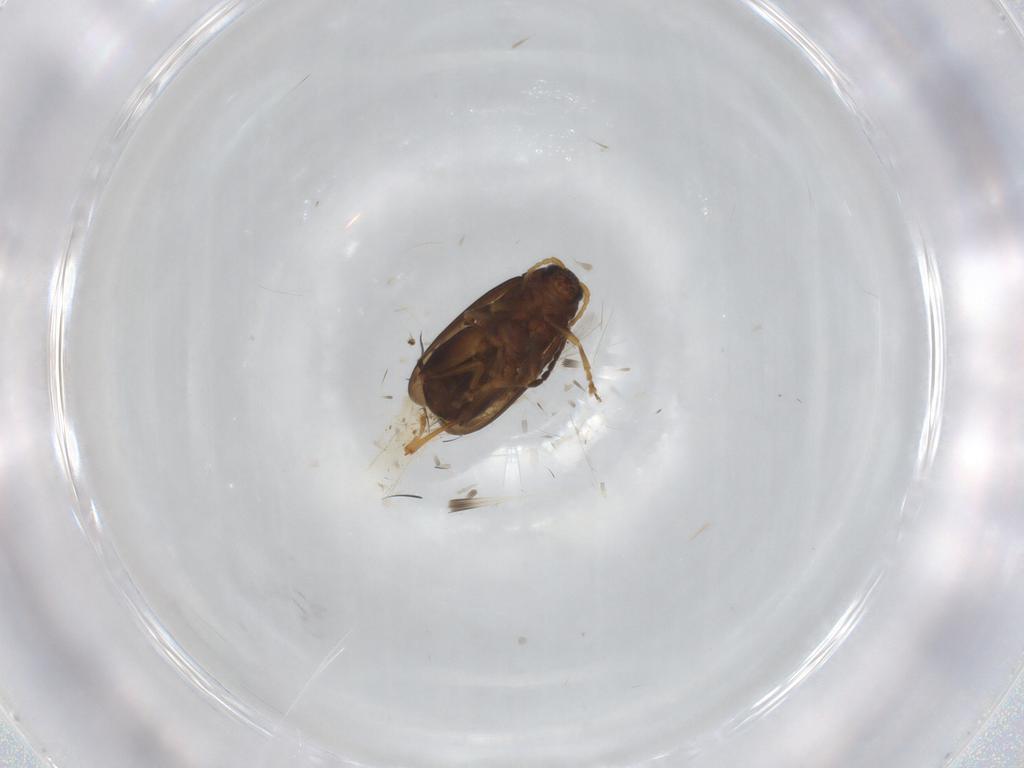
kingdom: Animalia
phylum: Arthropoda
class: Insecta
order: Coleoptera
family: Chrysomelidae
